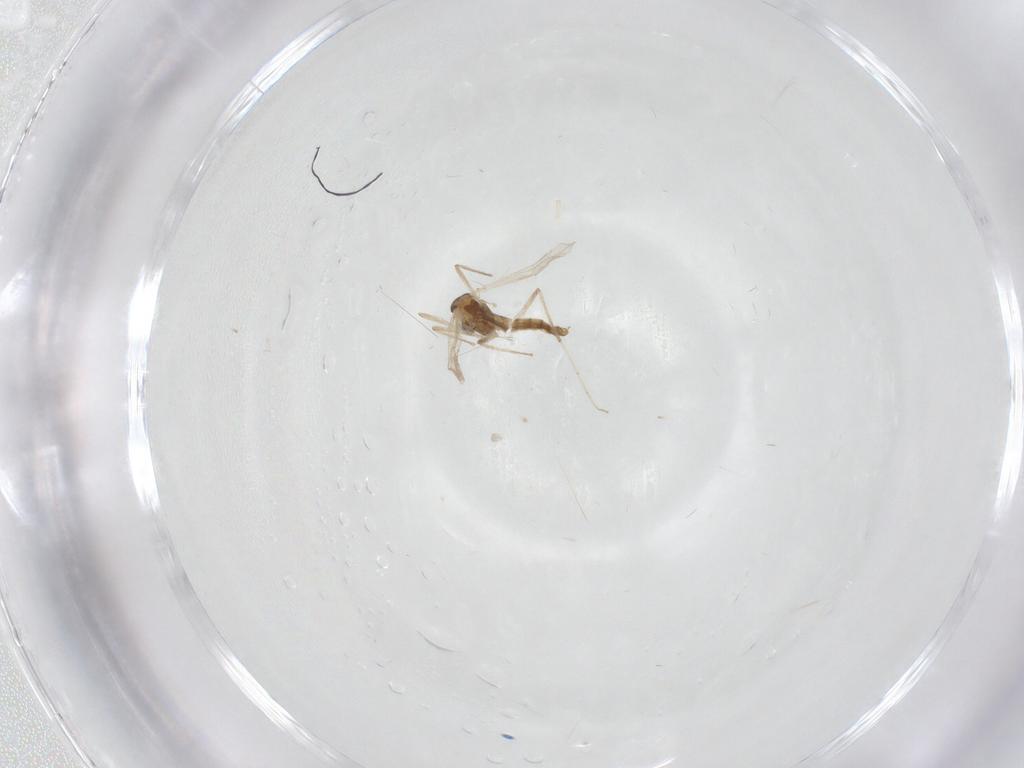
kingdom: Animalia
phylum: Arthropoda
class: Insecta
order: Diptera
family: Chironomidae
